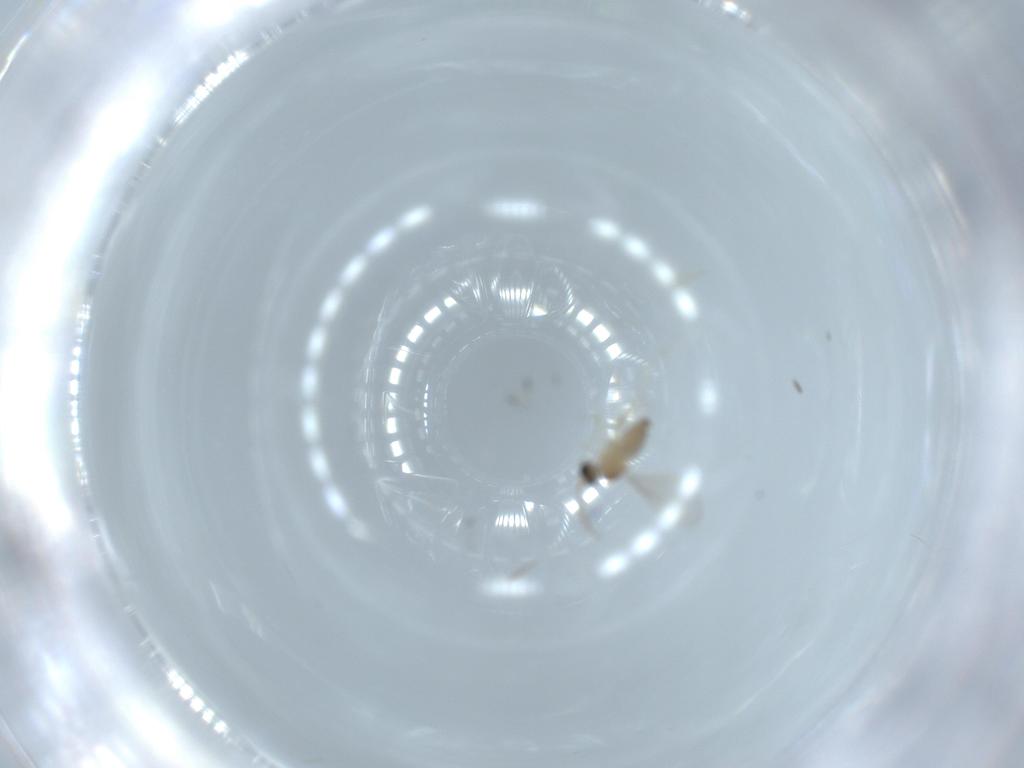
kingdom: Animalia
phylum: Arthropoda
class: Insecta
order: Diptera
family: Cecidomyiidae
